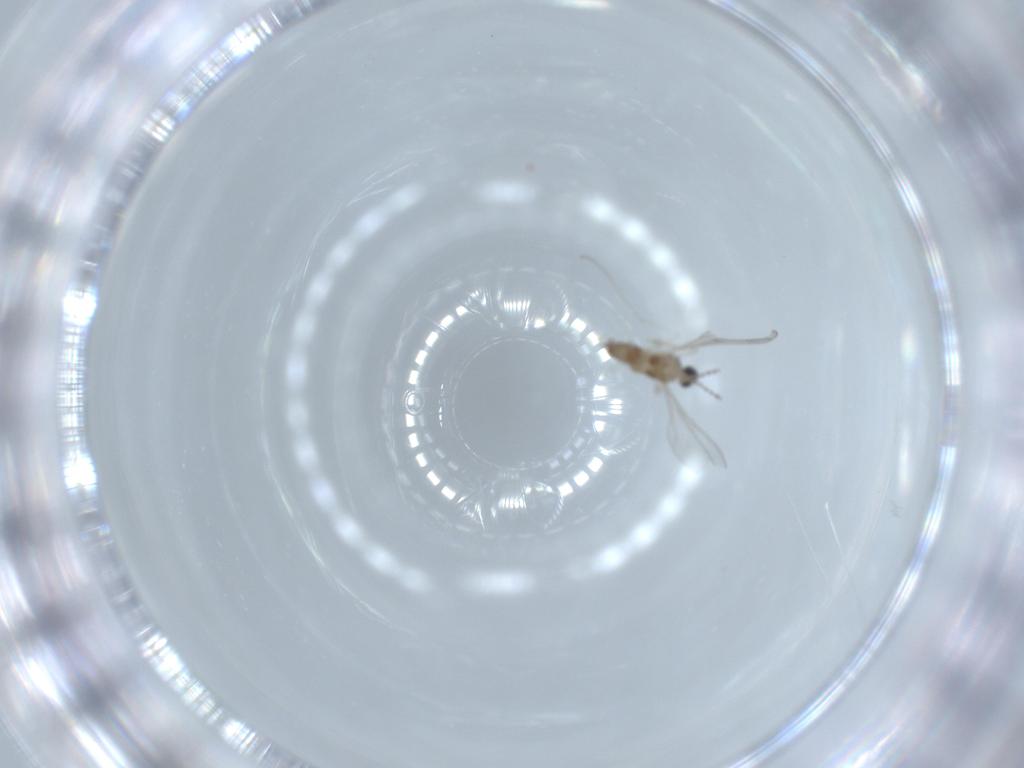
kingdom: Animalia
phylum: Arthropoda
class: Insecta
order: Diptera
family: Cecidomyiidae
